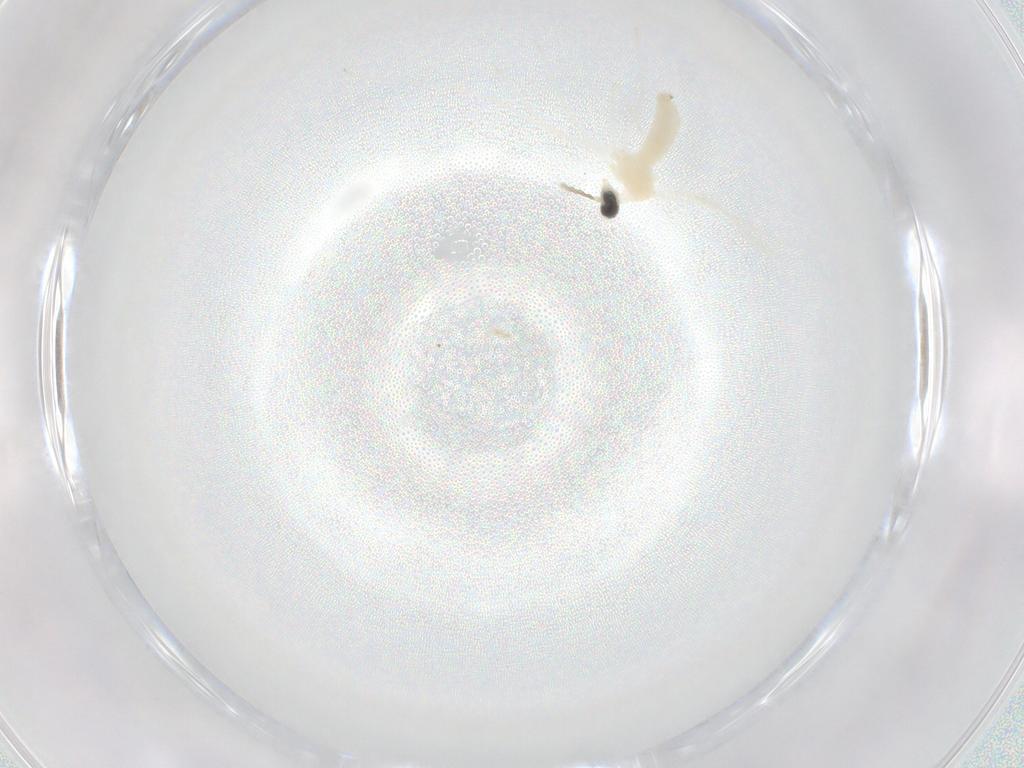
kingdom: Animalia
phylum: Arthropoda
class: Insecta
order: Diptera
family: Cecidomyiidae
